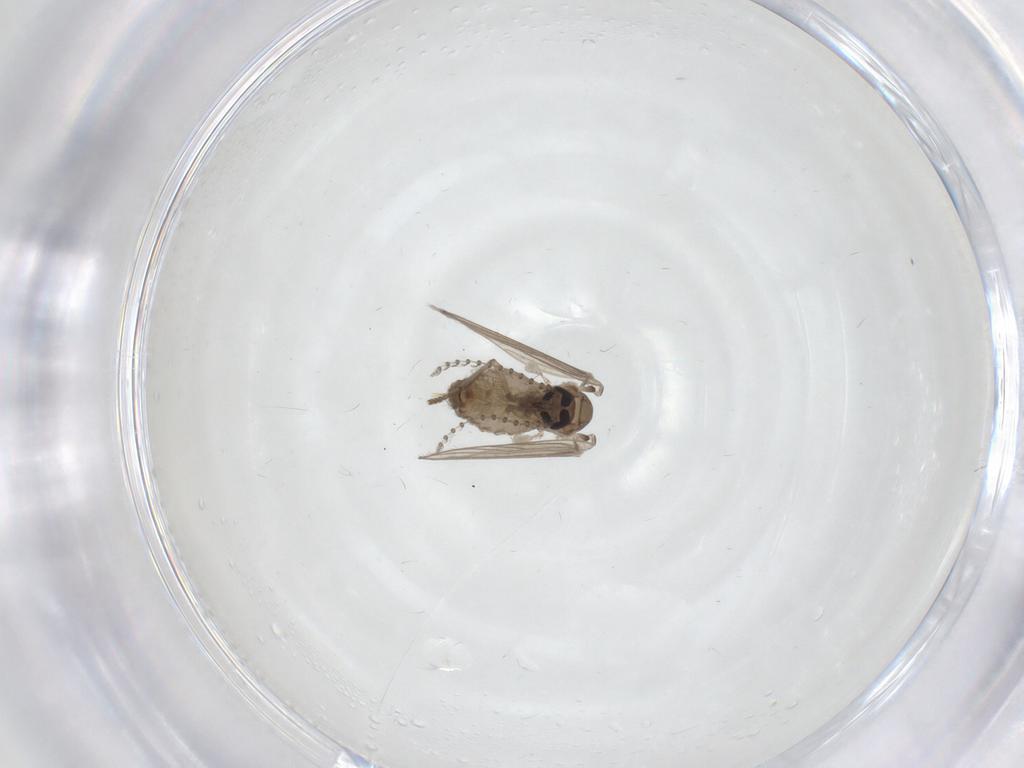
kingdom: Animalia
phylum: Arthropoda
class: Insecta
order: Diptera
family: Psychodidae
